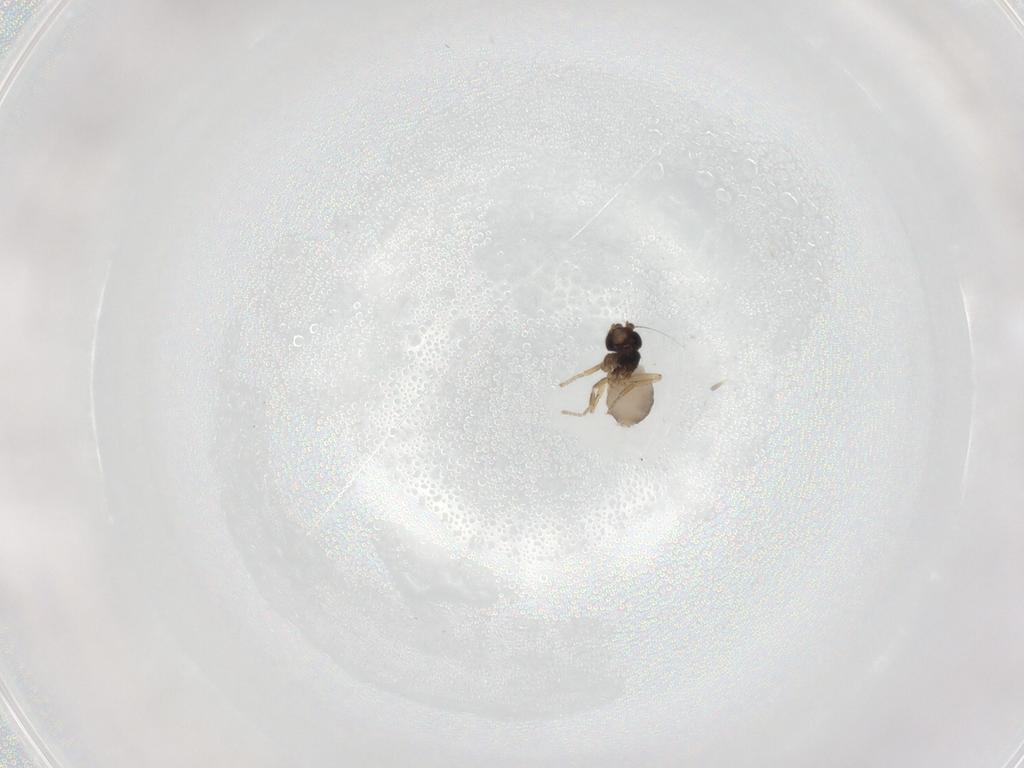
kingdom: Animalia
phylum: Arthropoda
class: Insecta
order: Diptera
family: Phoridae
